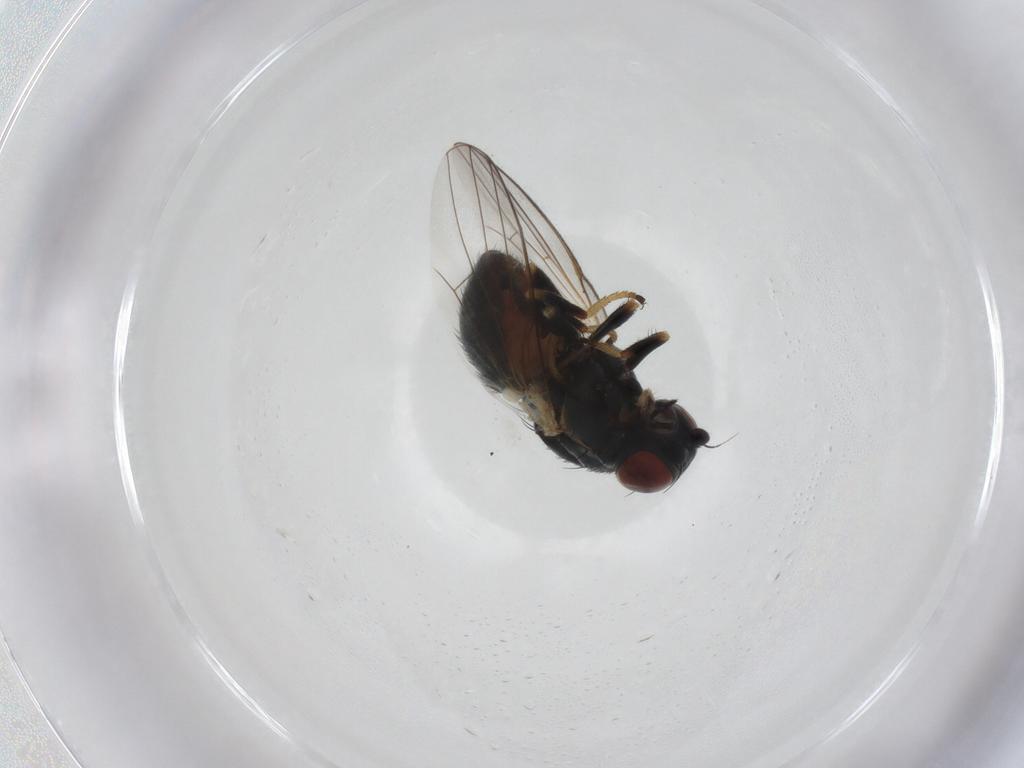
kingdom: Animalia
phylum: Arthropoda
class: Insecta
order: Diptera
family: Chamaemyiidae
